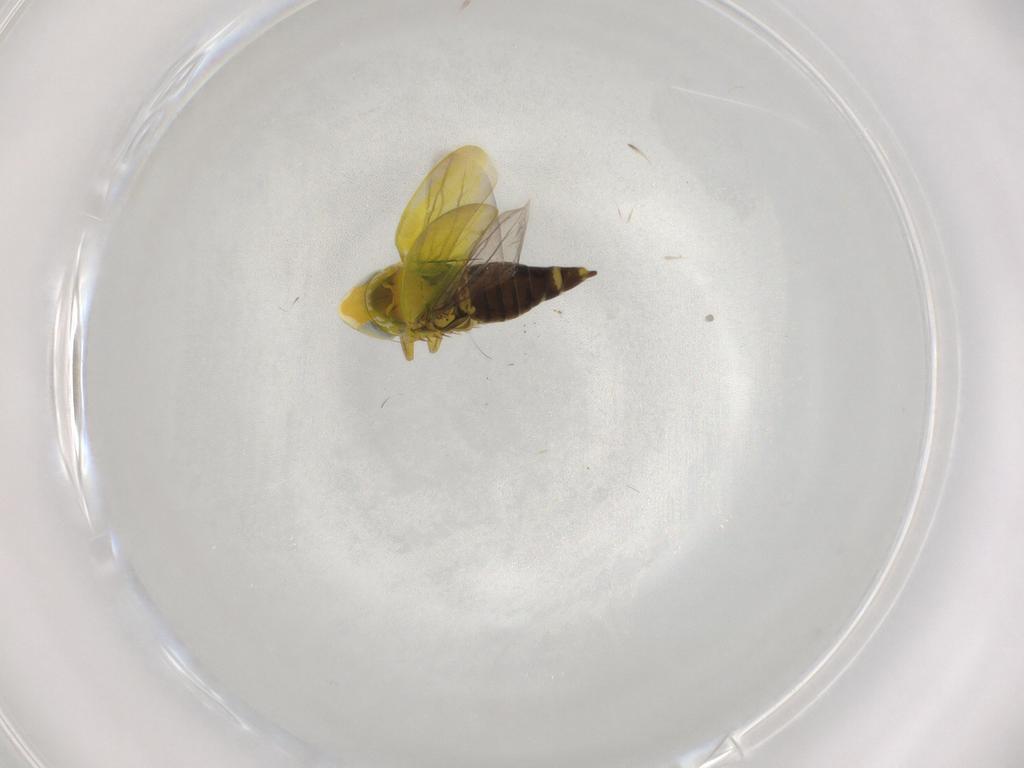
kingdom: Animalia
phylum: Arthropoda
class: Insecta
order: Hemiptera
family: Cicadellidae
